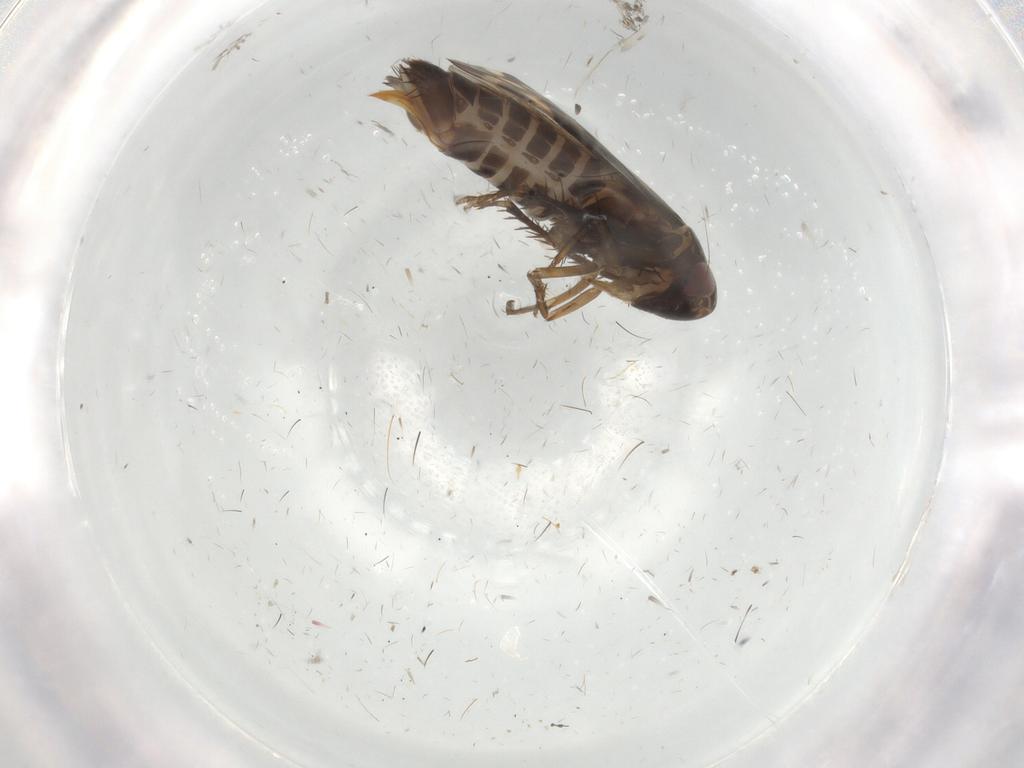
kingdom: Animalia
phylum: Arthropoda
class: Insecta
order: Hemiptera
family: Cicadellidae
